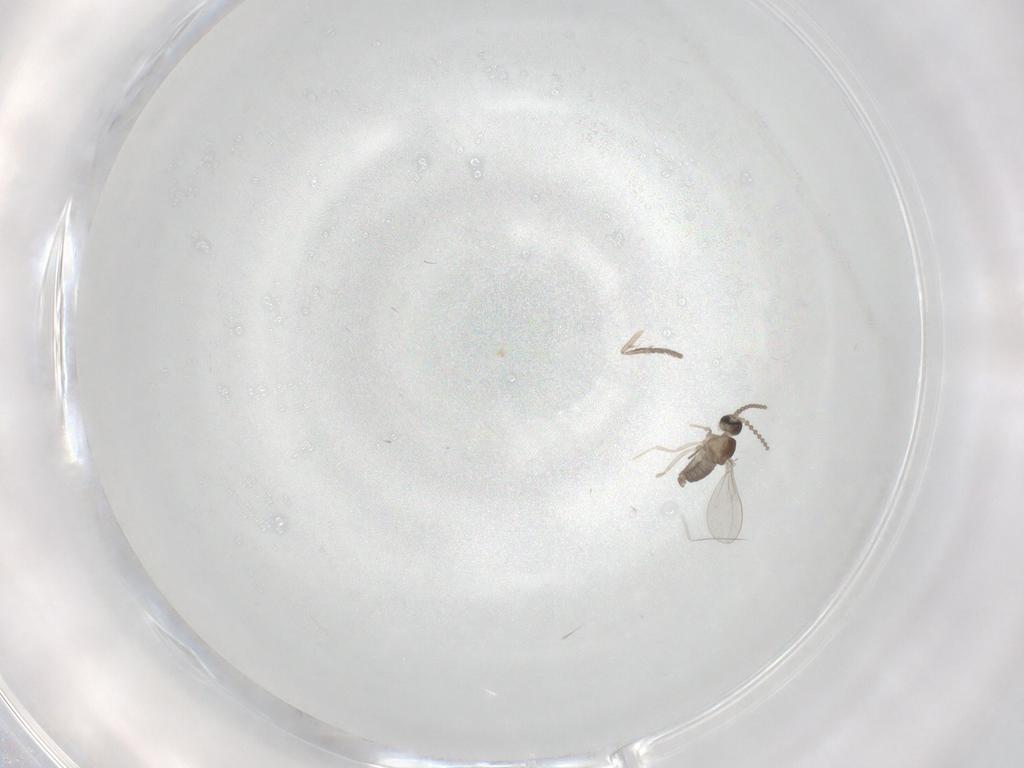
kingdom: Animalia
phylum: Arthropoda
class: Insecta
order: Diptera
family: Cecidomyiidae
